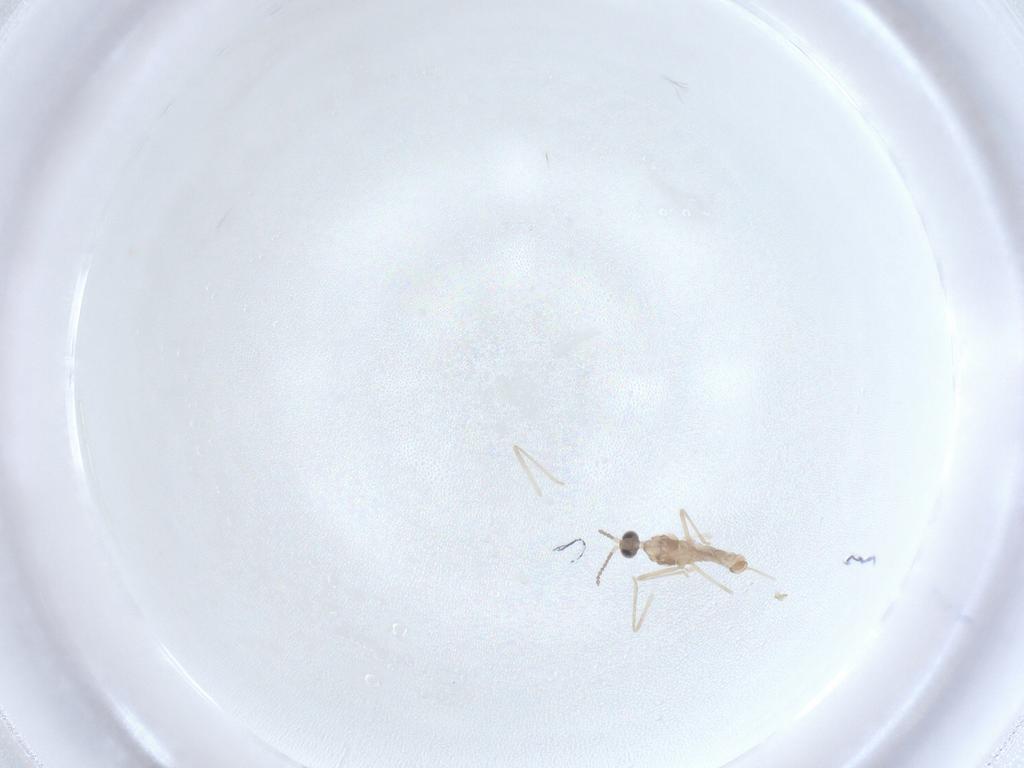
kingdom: Animalia
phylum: Arthropoda
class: Insecta
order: Diptera
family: Cecidomyiidae
